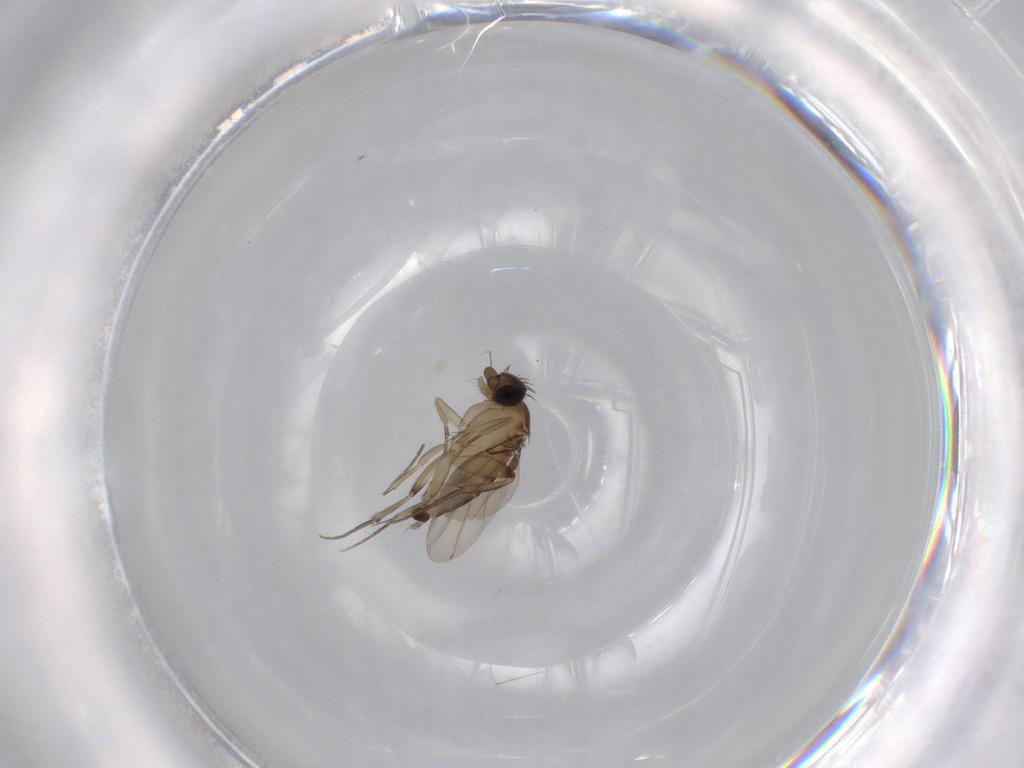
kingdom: Animalia
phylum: Arthropoda
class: Insecta
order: Diptera
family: Phoridae
